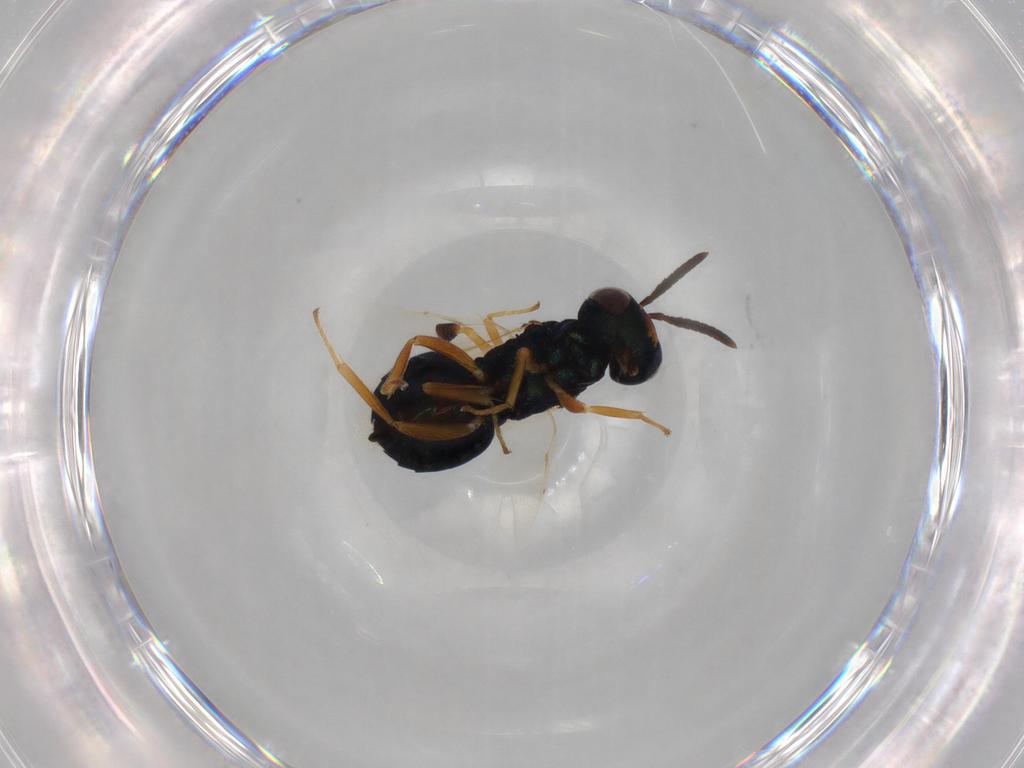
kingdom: Animalia
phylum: Arthropoda
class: Insecta
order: Hymenoptera
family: Pteromalidae
